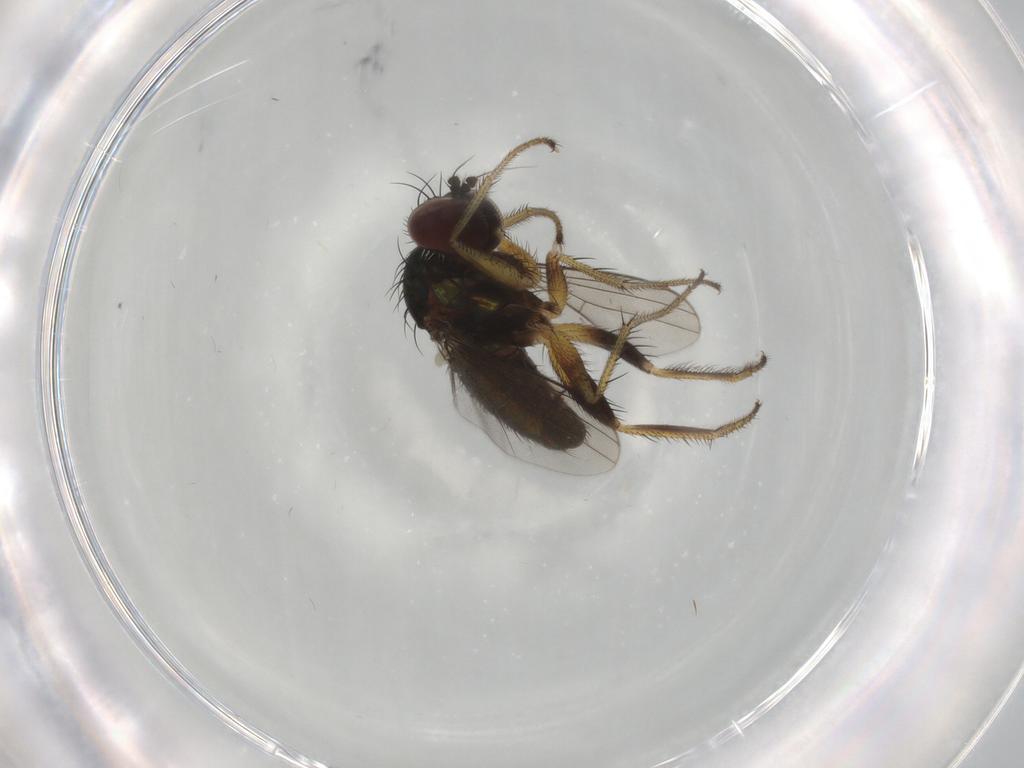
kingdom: Animalia
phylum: Arthropoda
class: Insecta
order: Diptera
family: Dolichopodidae
